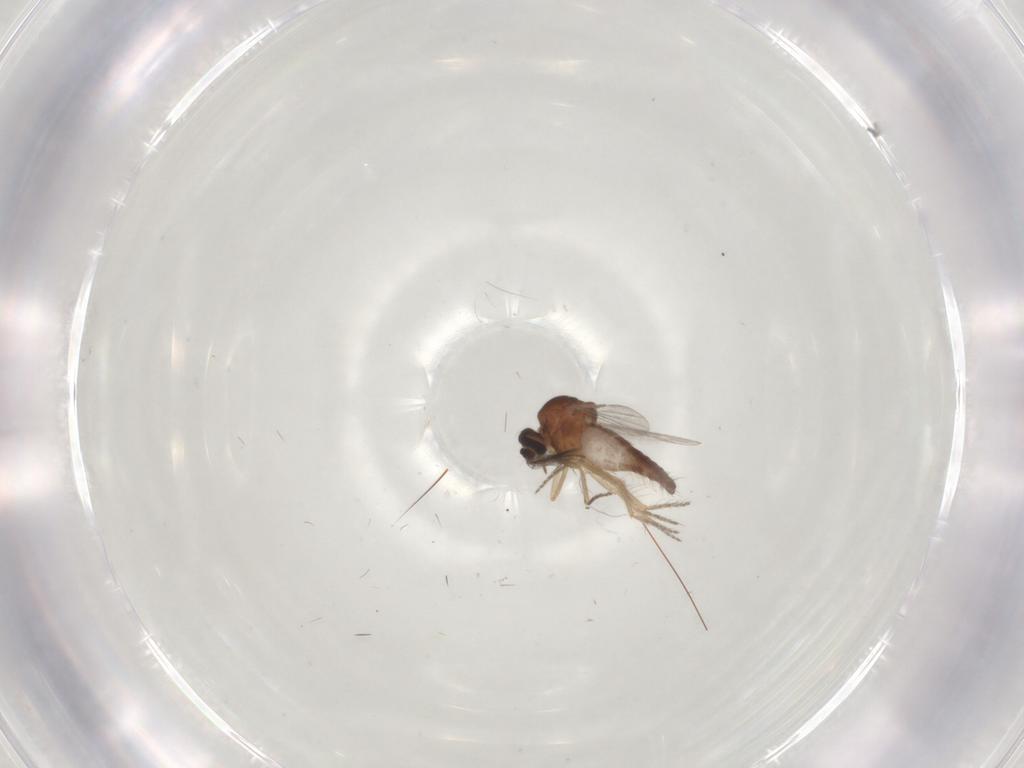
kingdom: Animalia
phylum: Arthropoda
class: Insecta
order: Diptera
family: Ceratopogonidae
